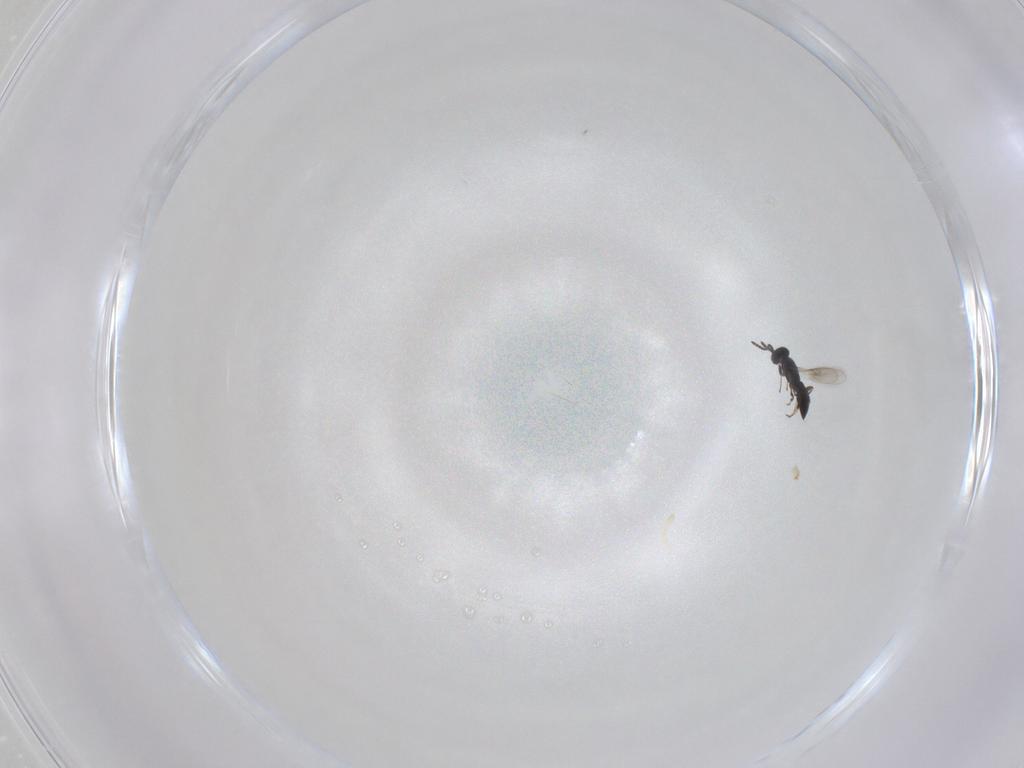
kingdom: Animalia
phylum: Arthropoda
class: Insecta
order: Hymenoptera
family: Scelionidae
